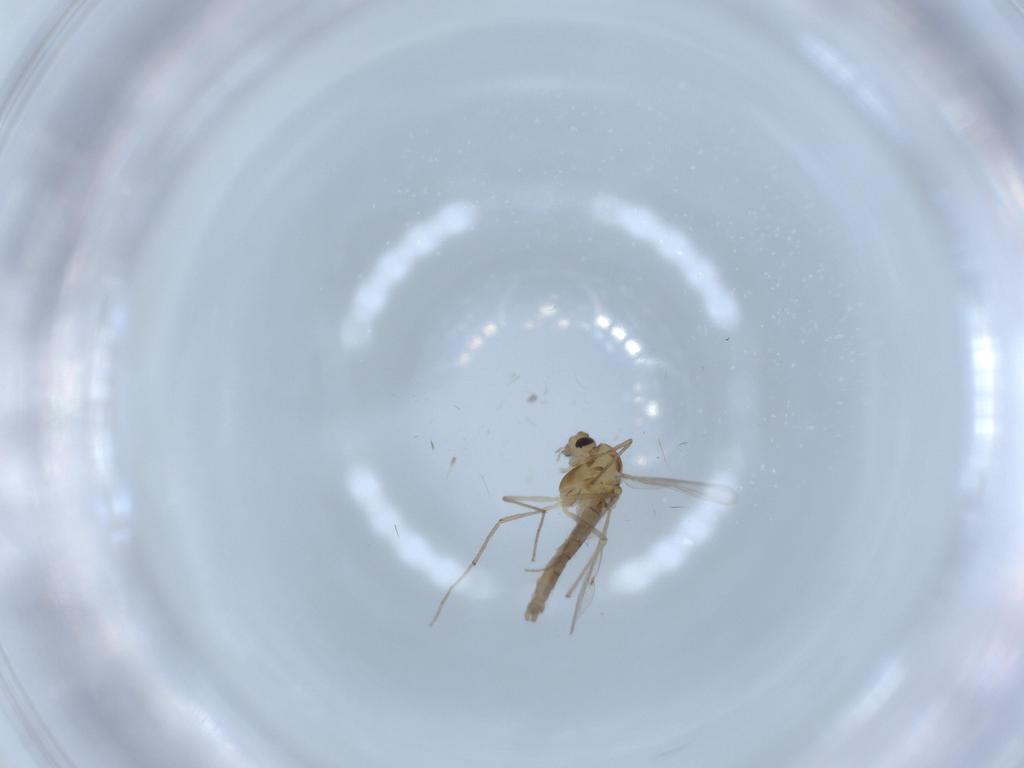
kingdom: Animalia
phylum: Arthropoda
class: Insecta
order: Diptera
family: Chironomidae
